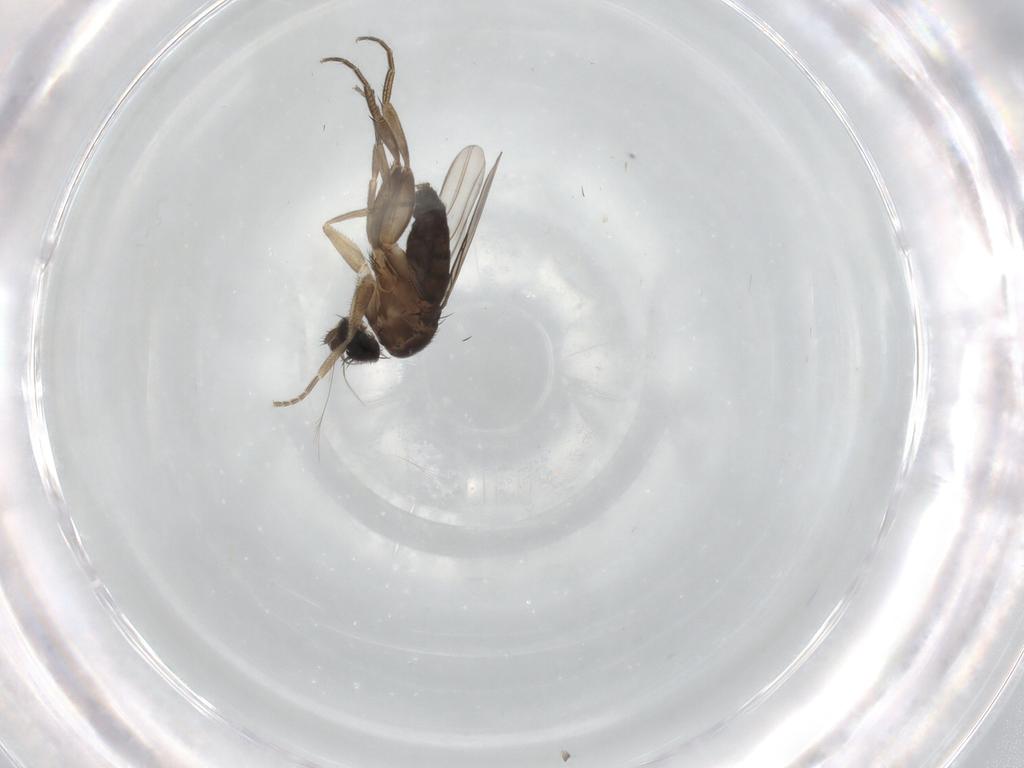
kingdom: Animalia
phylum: Arthropoda
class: Insecta
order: Diptera
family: Phoridae
